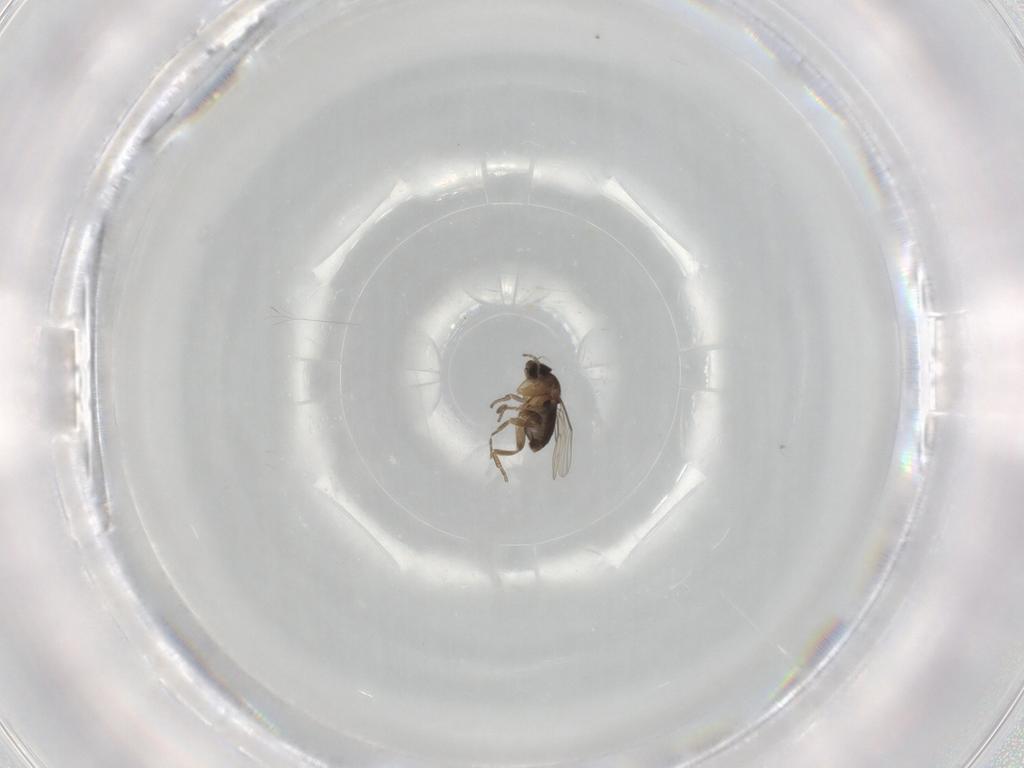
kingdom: Animalia
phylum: Arthropoda
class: Insecta
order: Diptera
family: Phoridae
